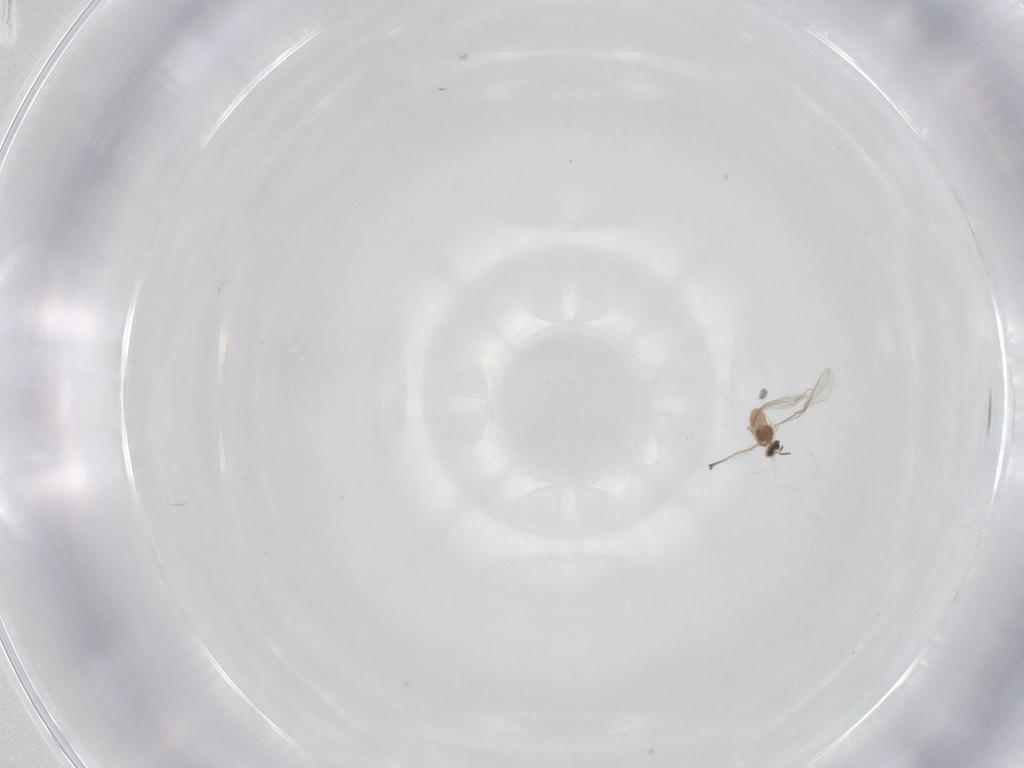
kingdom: Animalia
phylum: Arthropoda
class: Insecta
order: Diptera
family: Cecidomyiidae
